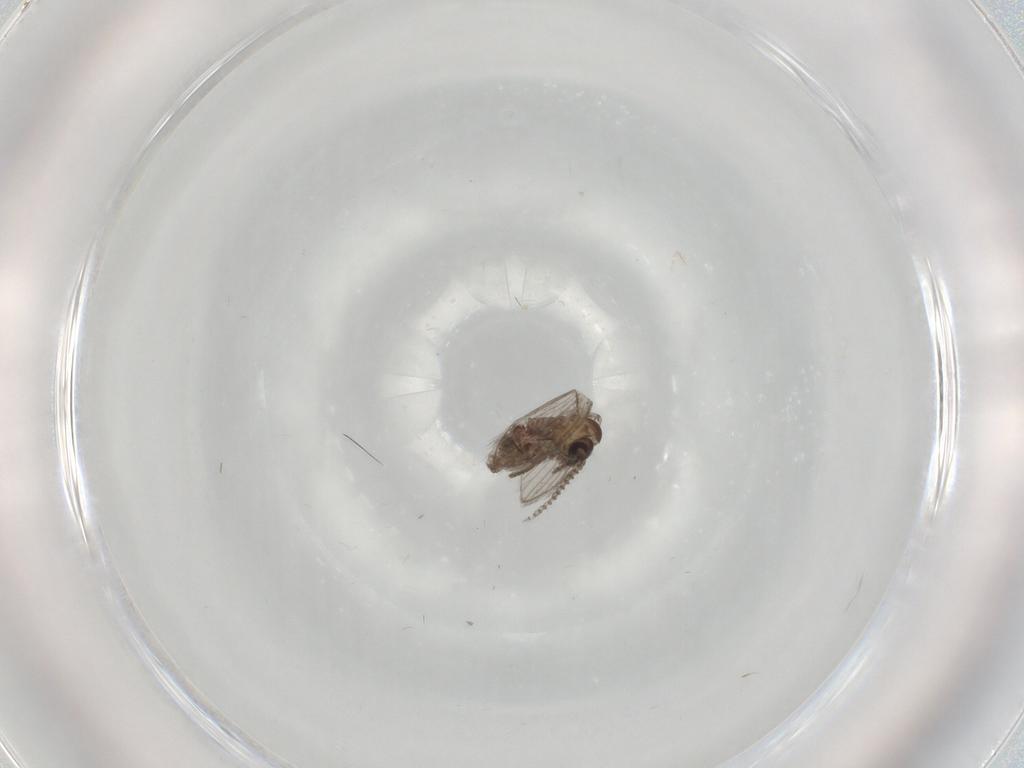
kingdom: Animalia
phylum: Arthropoda
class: Insecta
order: Diptera
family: Psychodidae
